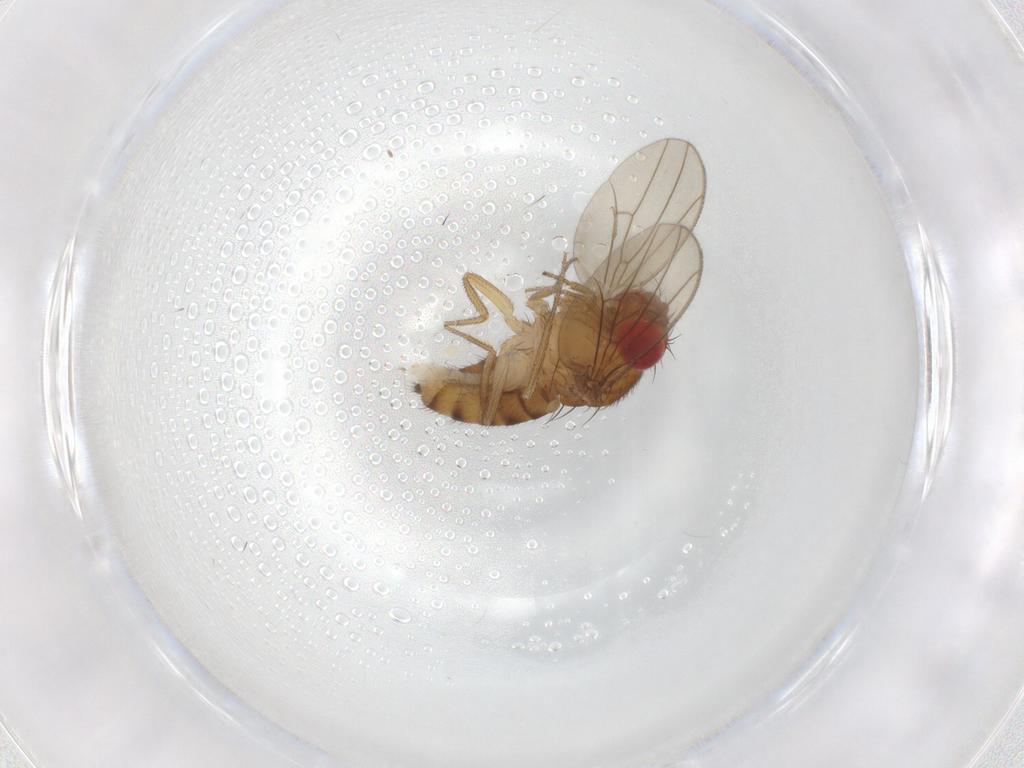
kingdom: Animalia
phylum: Arthropoda
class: Insecta
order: Diptera
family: Drosophilidae
